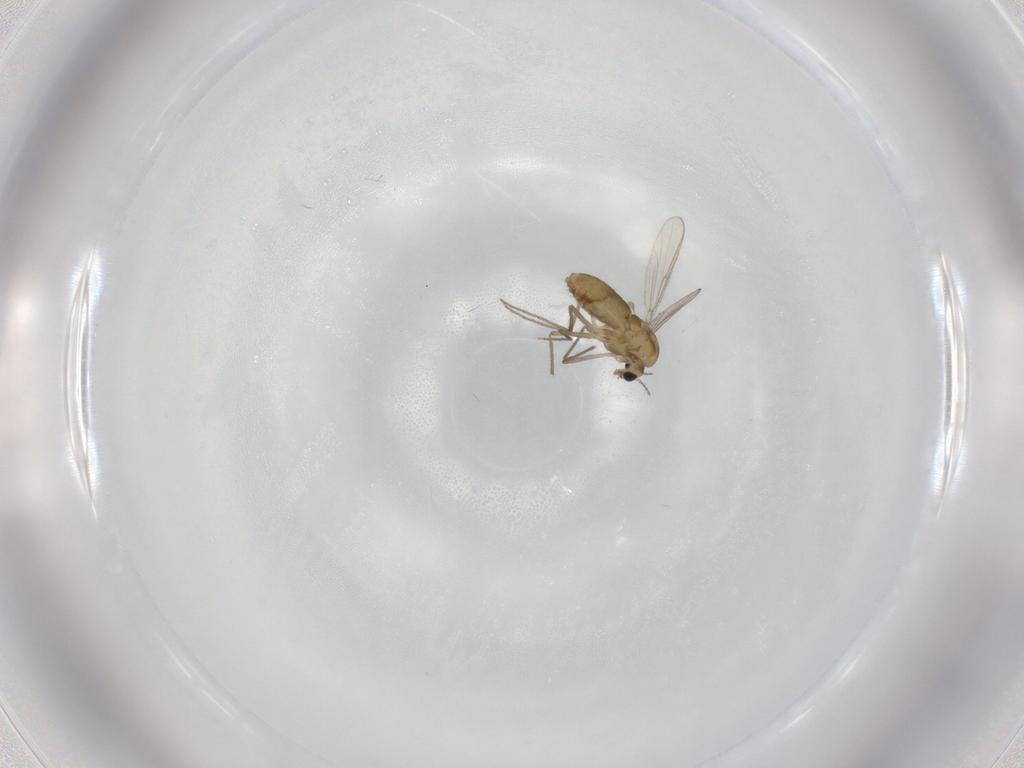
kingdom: Animalia
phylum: Arthropoda
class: Insecta
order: Diptera
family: Chironomidae
